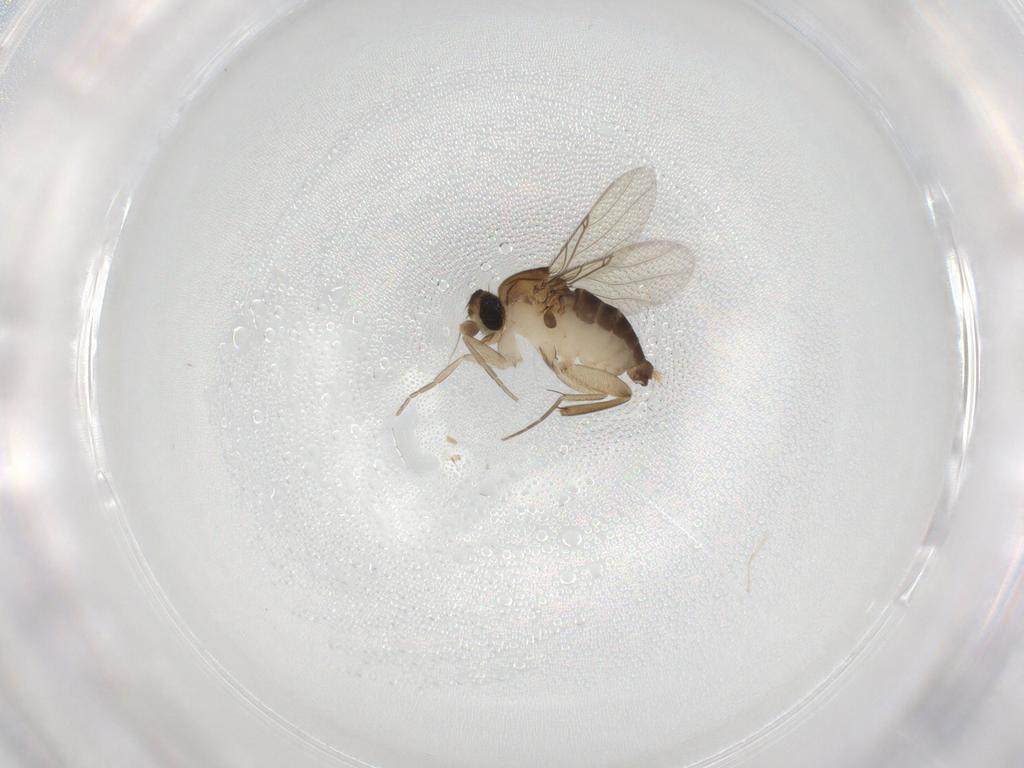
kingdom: Animalia
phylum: Arthropoda
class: Insecta
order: Diptera
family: Phoridae
